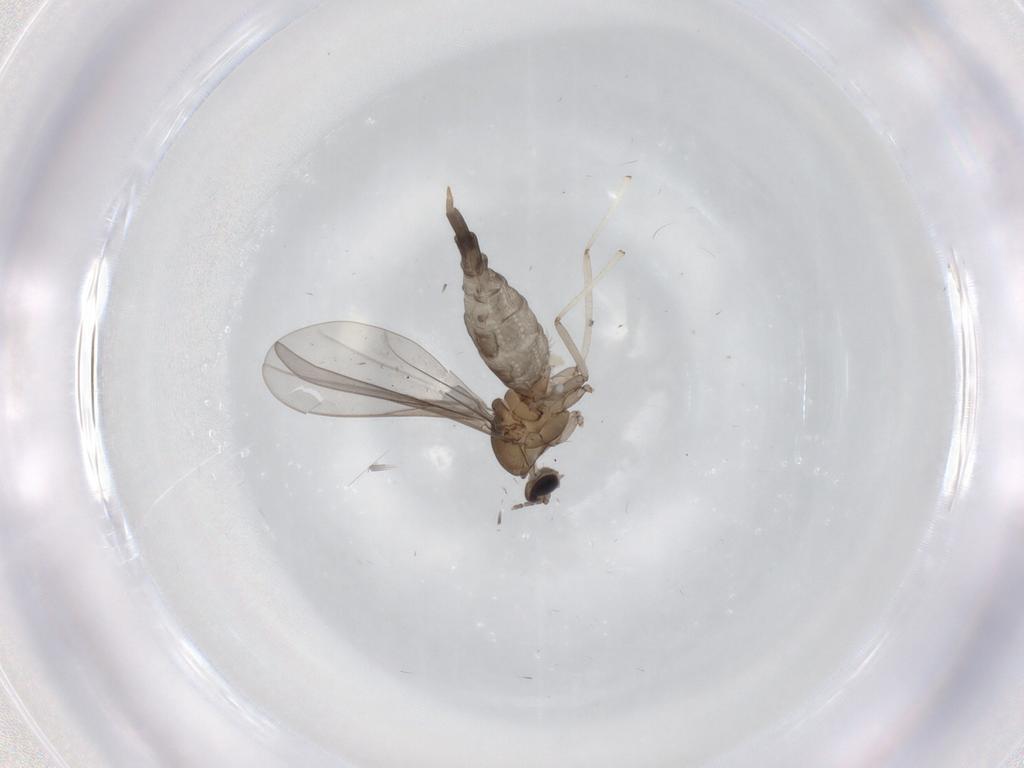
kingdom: Animalia
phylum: Arthropoda
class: Insecta
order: Diptera
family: Cecidomyiidae
